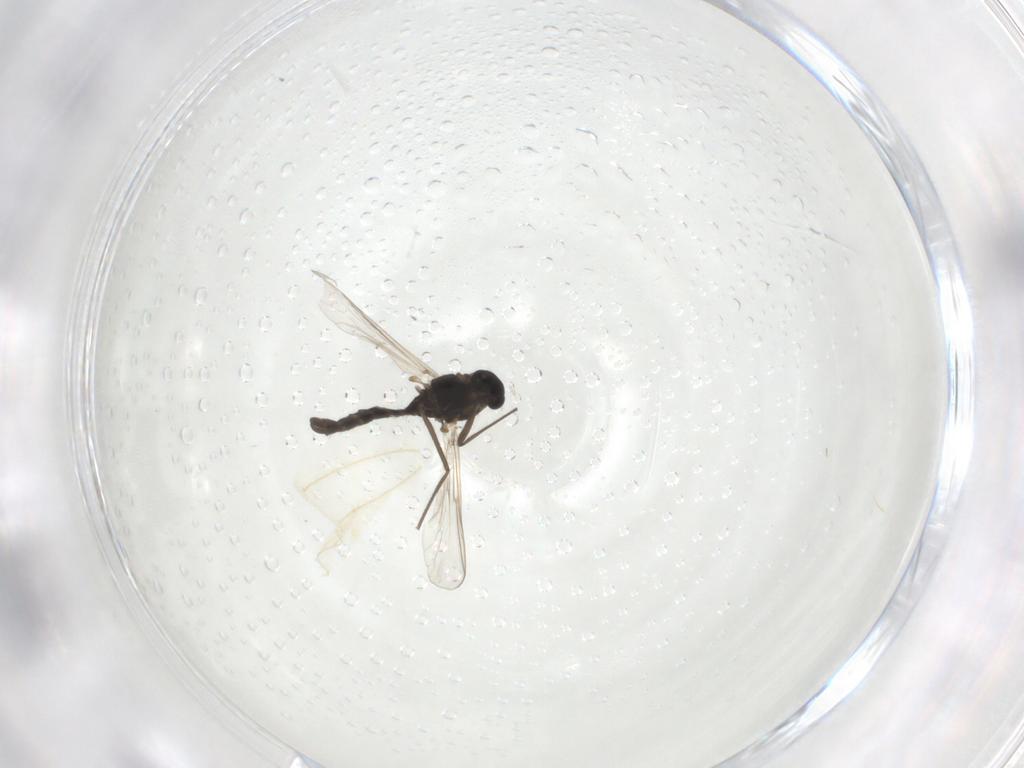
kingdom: Animalia
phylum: Arthropoda
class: Insecta
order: Diptera
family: Chironomidae
